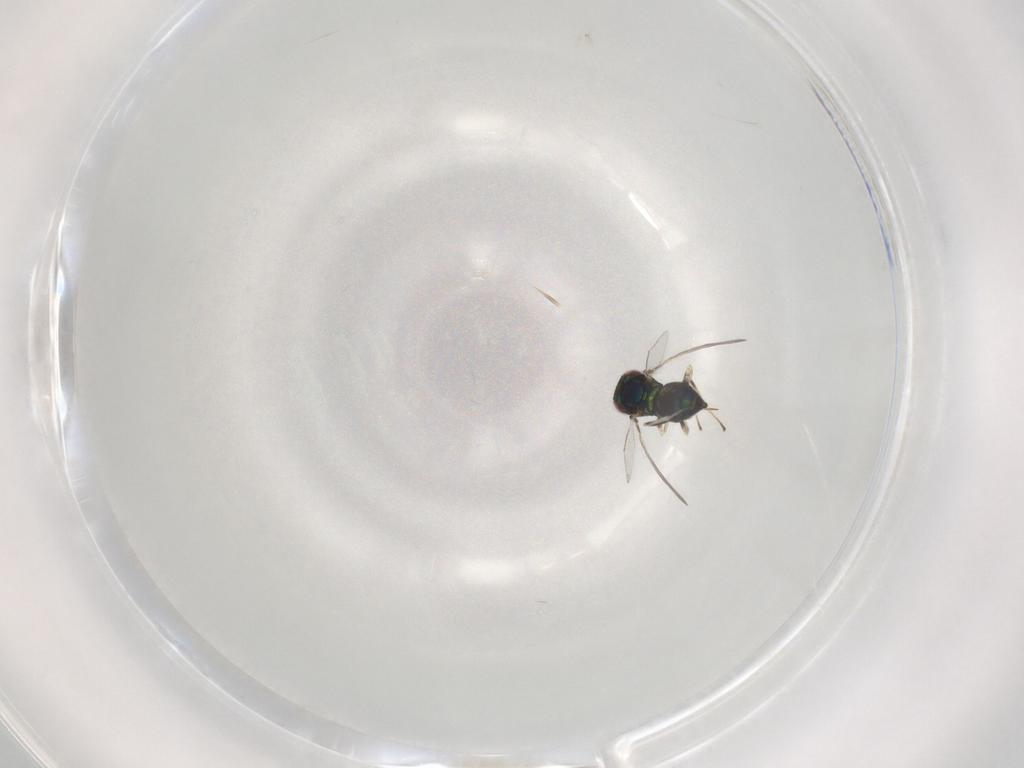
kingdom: Animalia
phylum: Arthropoda
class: Insecta
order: Hymenoptera
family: Eulophidae
